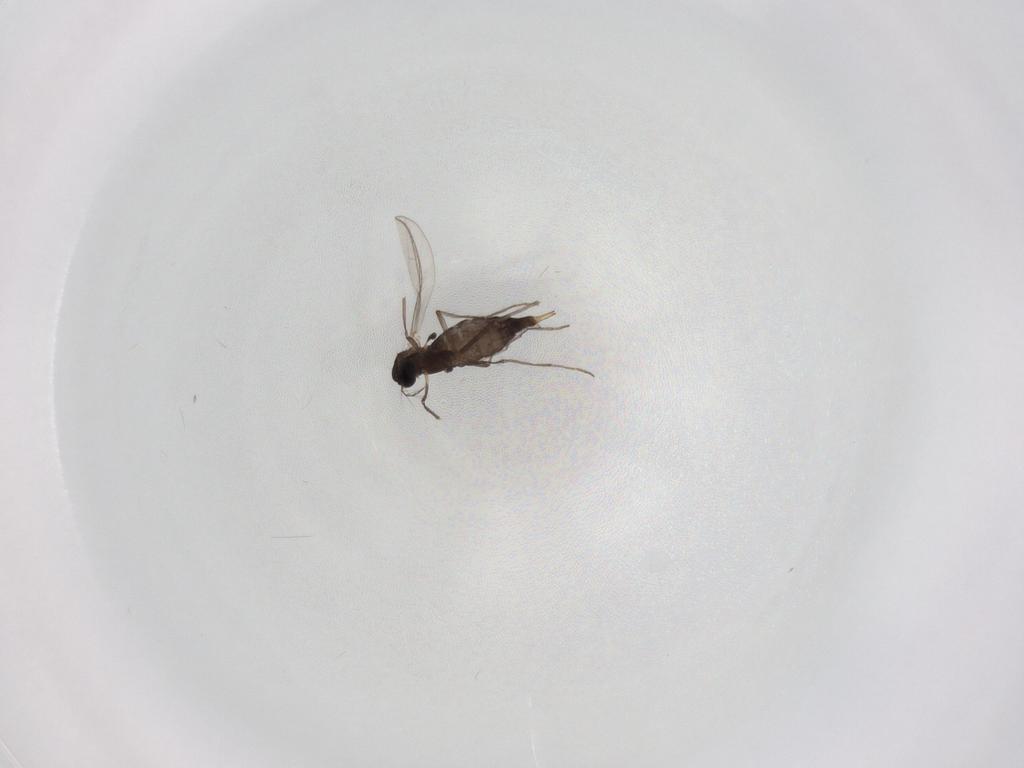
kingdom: Animalia
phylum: Arthropoda
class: Insecta
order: Diptera
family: Chironomidae
